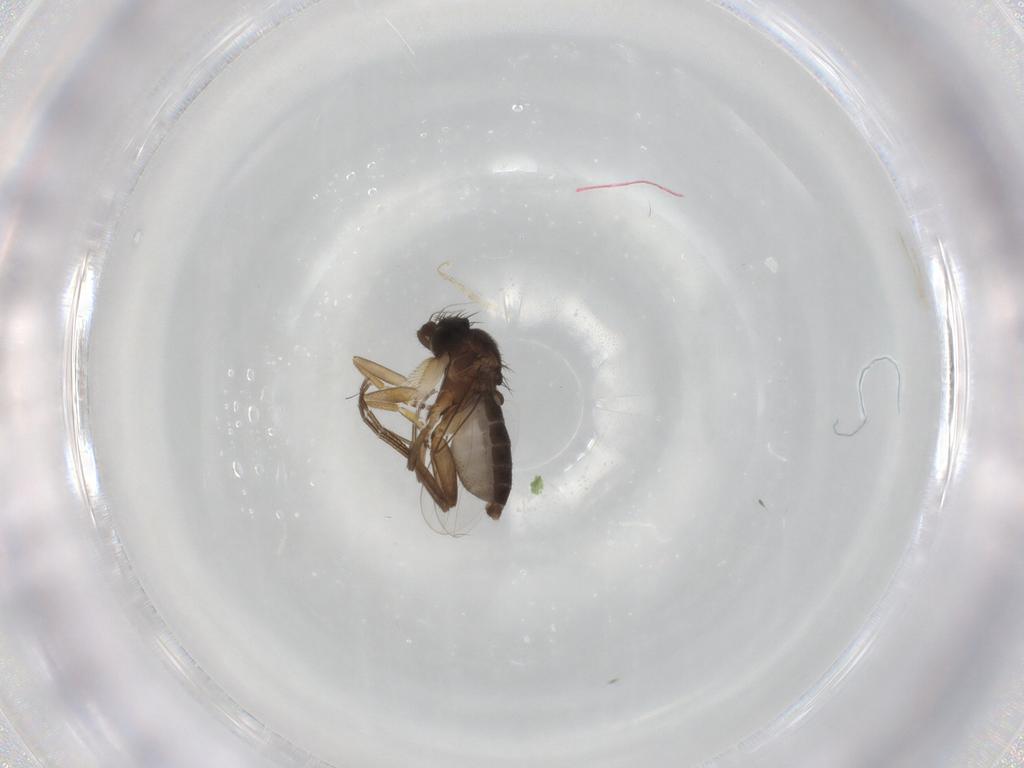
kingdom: Animalia
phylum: Arthropoda
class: Insecta
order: Diptera
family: Phoridae
